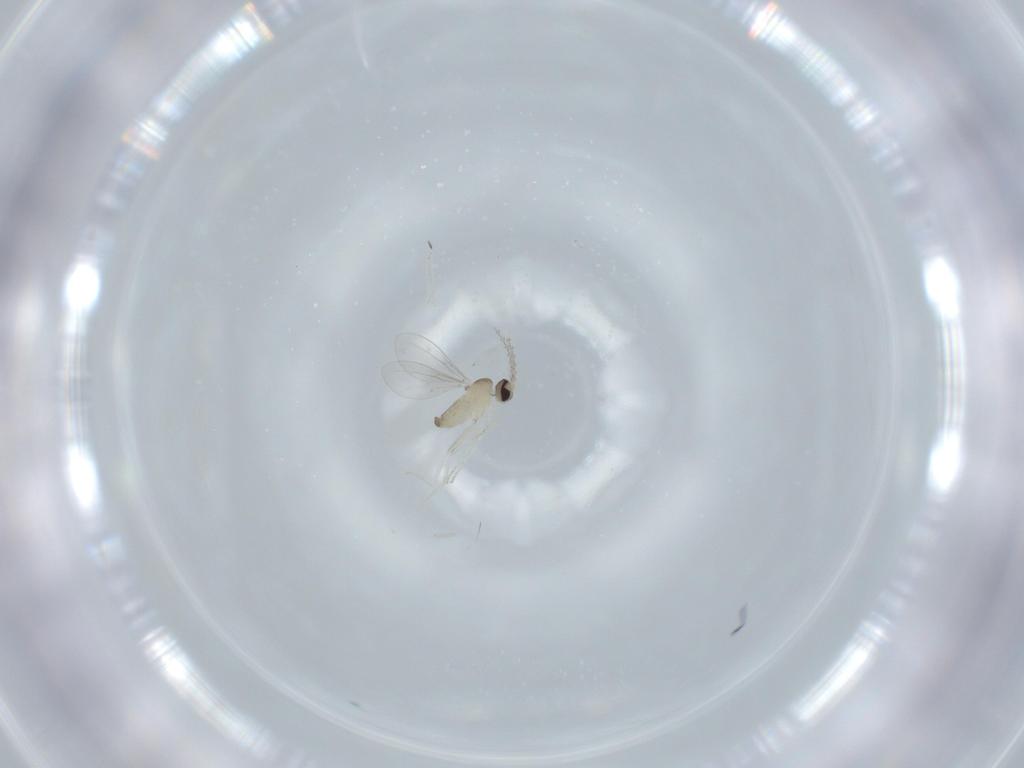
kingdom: Animalia
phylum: Arthropoda
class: Insecta
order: Diptera
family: Cecidomyiidae
